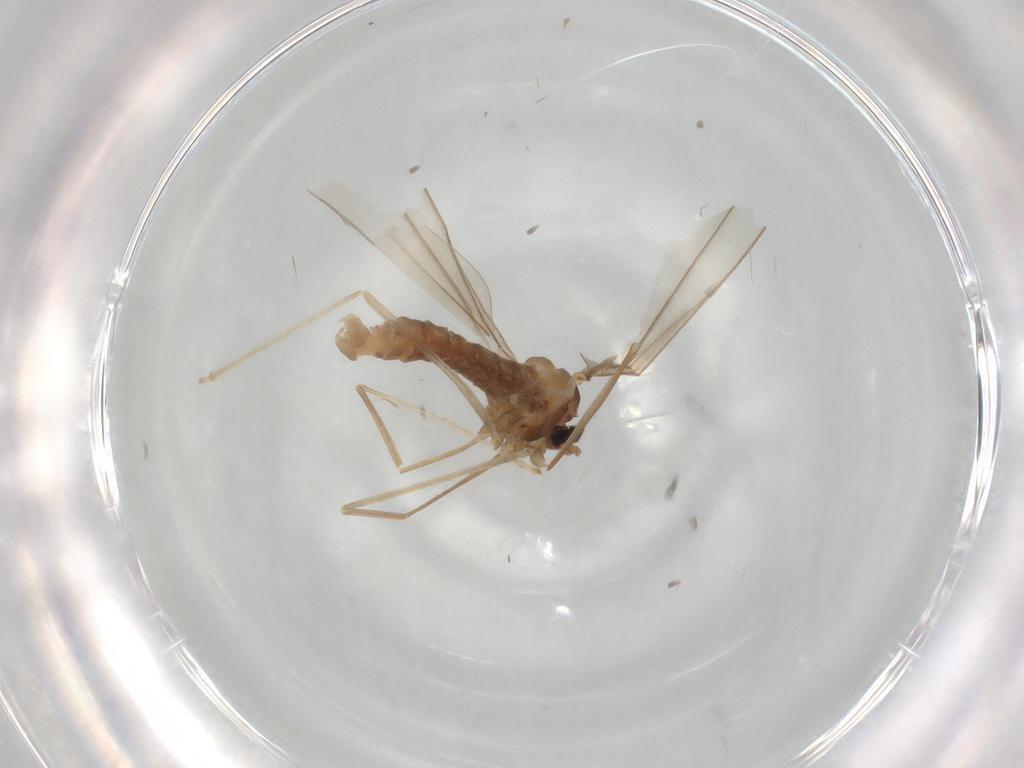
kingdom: Animalia
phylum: Arthropoda
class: Insecta
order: Diptera
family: Cecidomyiidae
